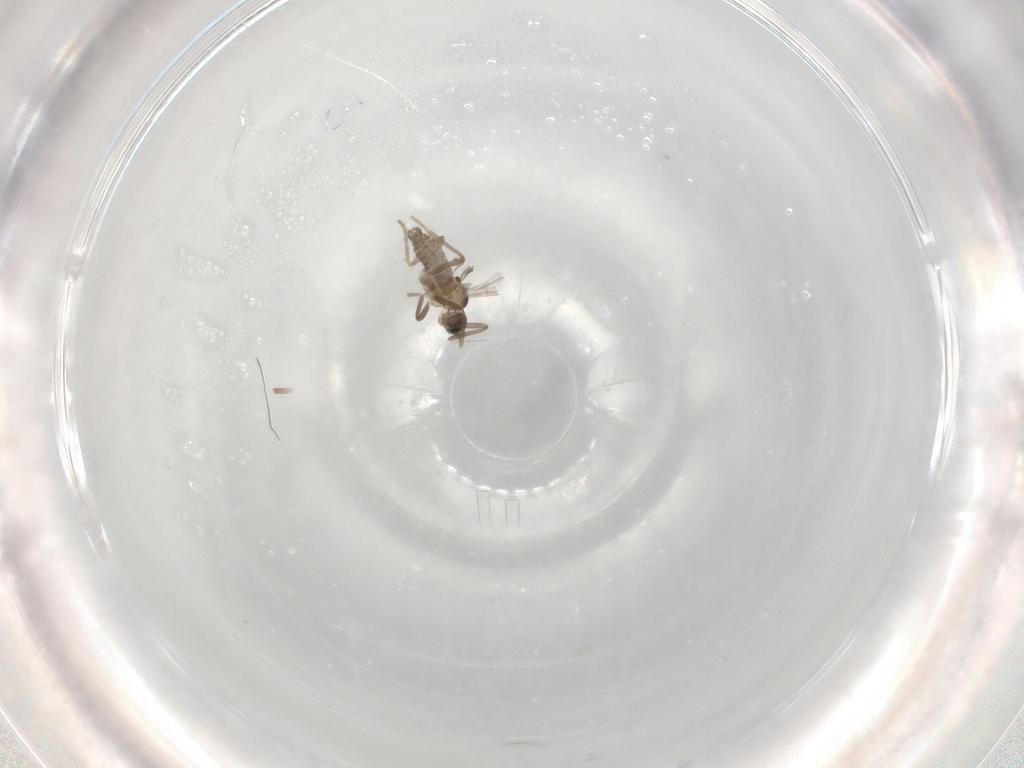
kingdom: Animalia
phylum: Arthropoda
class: Insecta
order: Diptera
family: Cecidomyiidae
